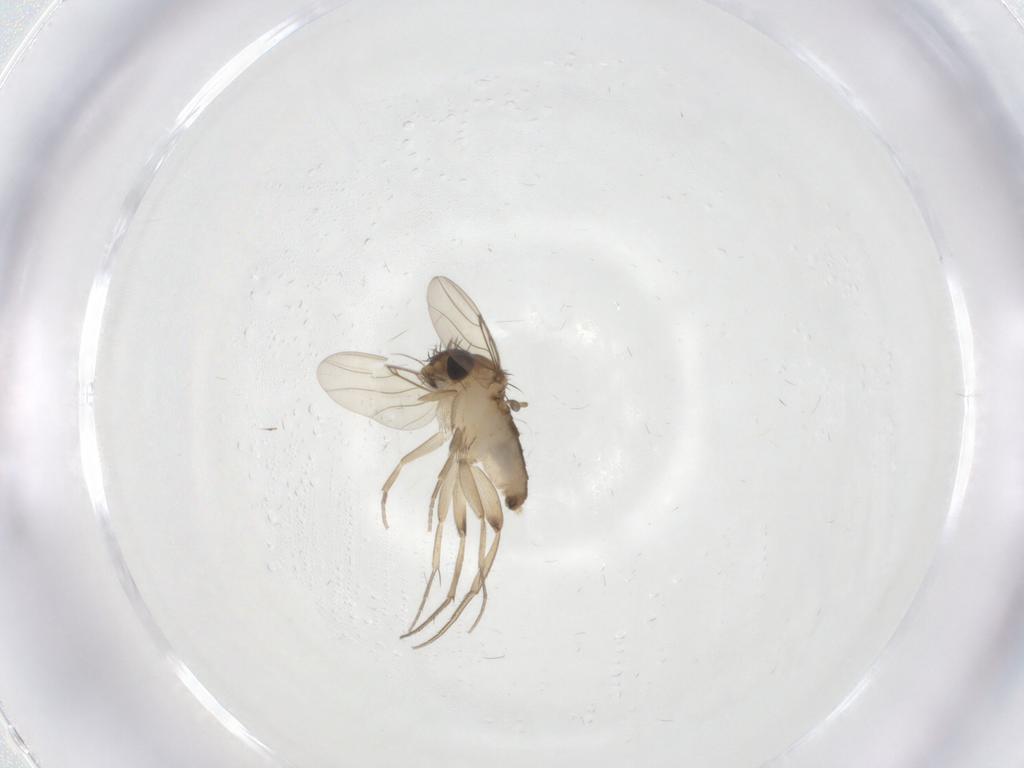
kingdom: Animalia
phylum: Arthropoda
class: Insecta
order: Diptera
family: Phoridae
